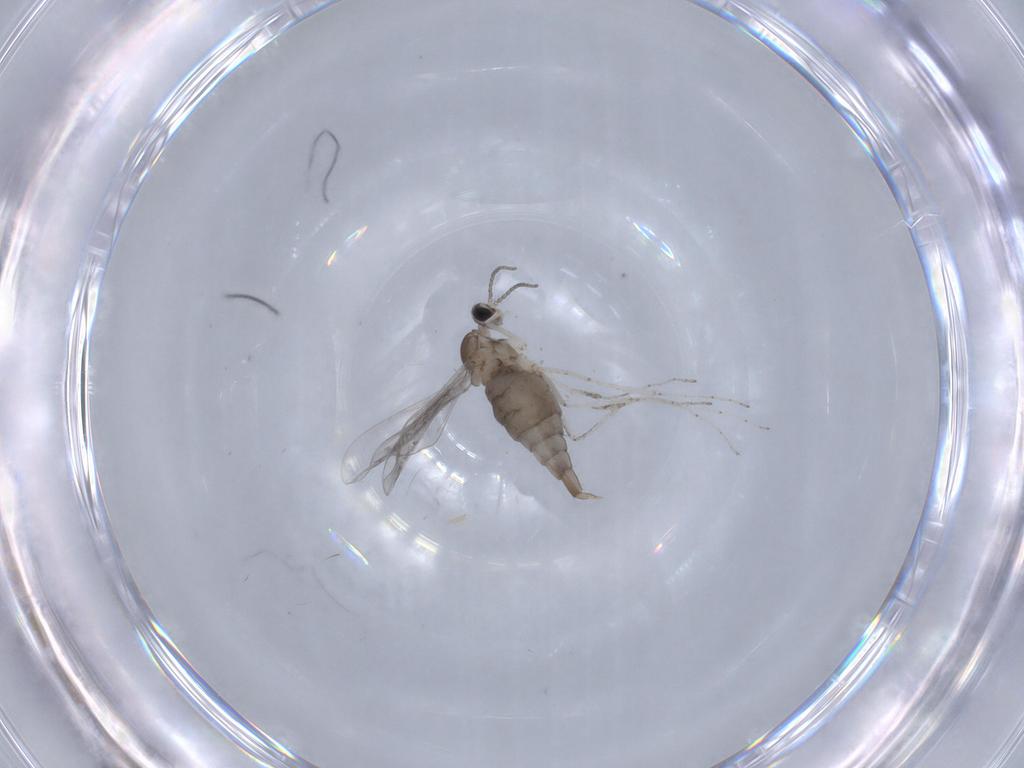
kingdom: Animalia
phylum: Arthropoda
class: Insecta
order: Diptera
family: Cecidomyiidae
